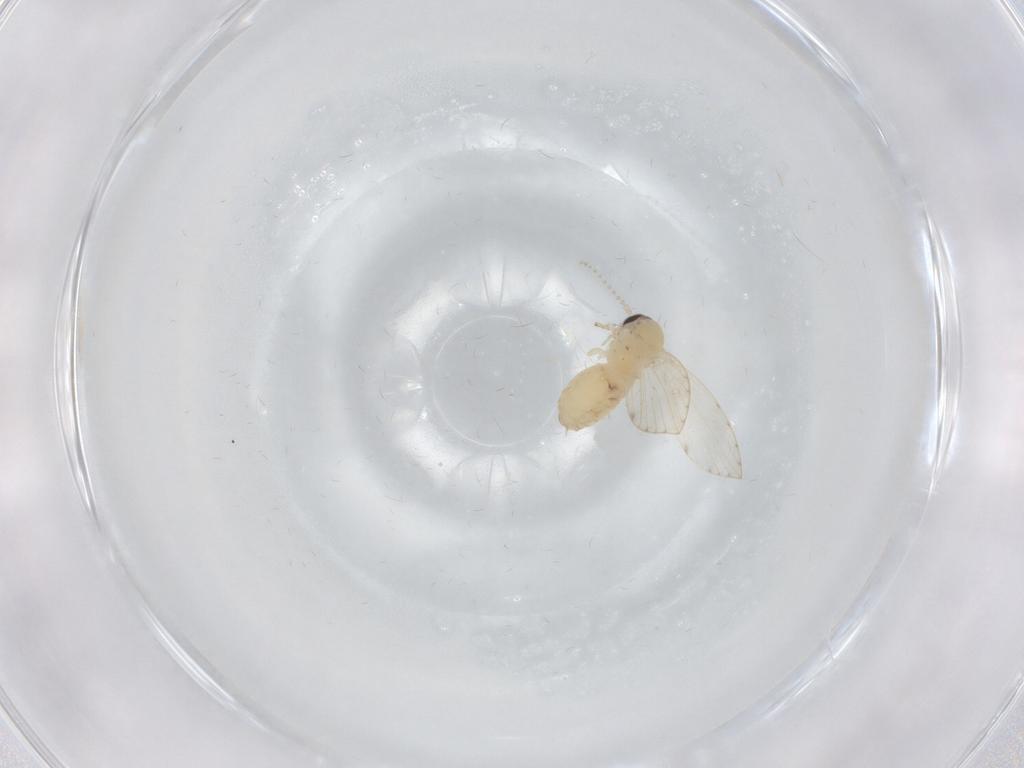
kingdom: Animalia
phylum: Arthropoda
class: Insecta
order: Diptera
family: Psychodidae
